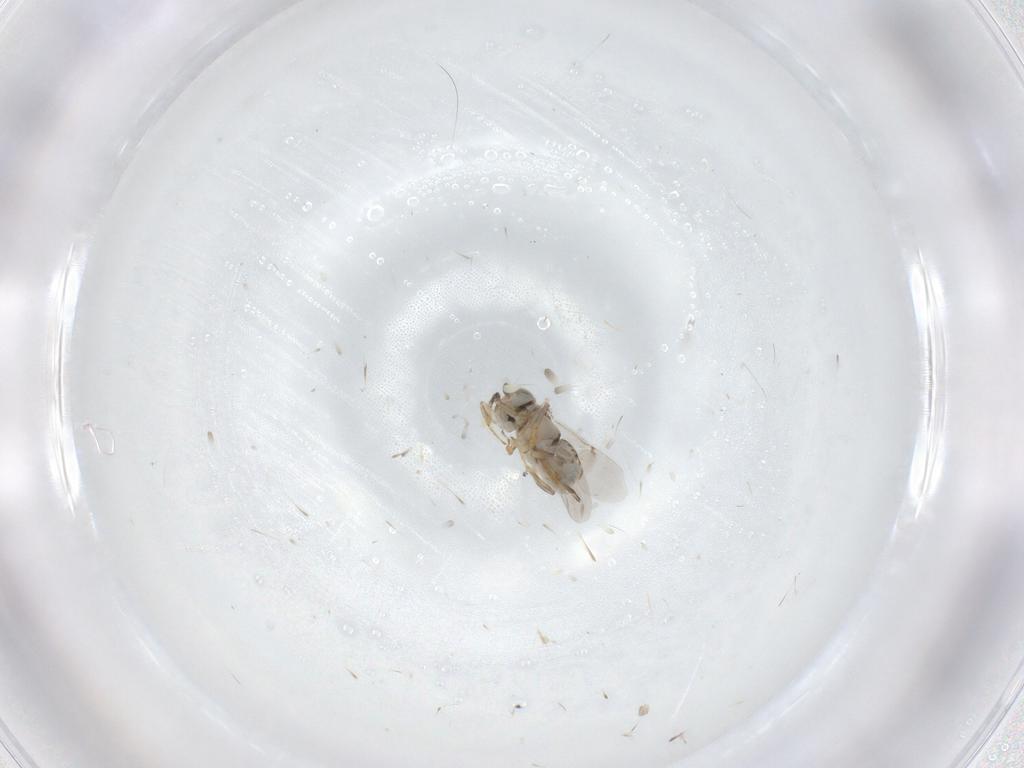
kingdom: Animalia
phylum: Arthropoda
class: Insecta
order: Hymenoptera
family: Encyrtidae
